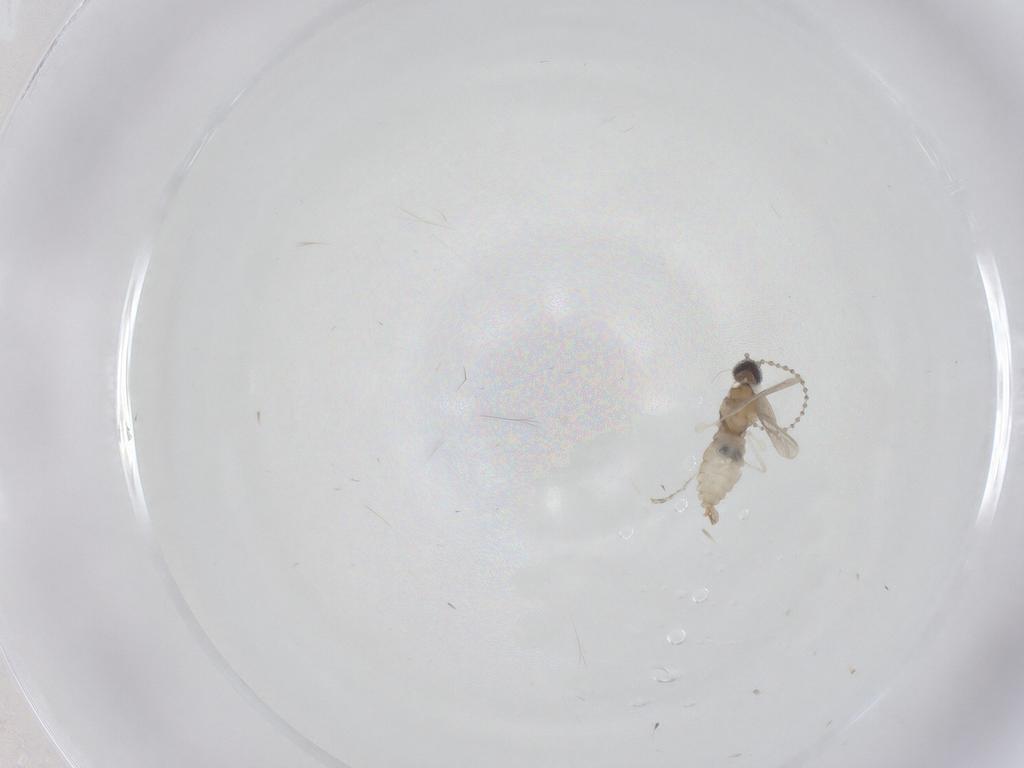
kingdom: Animalia
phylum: Arthropoda
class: Insecta
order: Diptera
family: Cecidomyiidae
